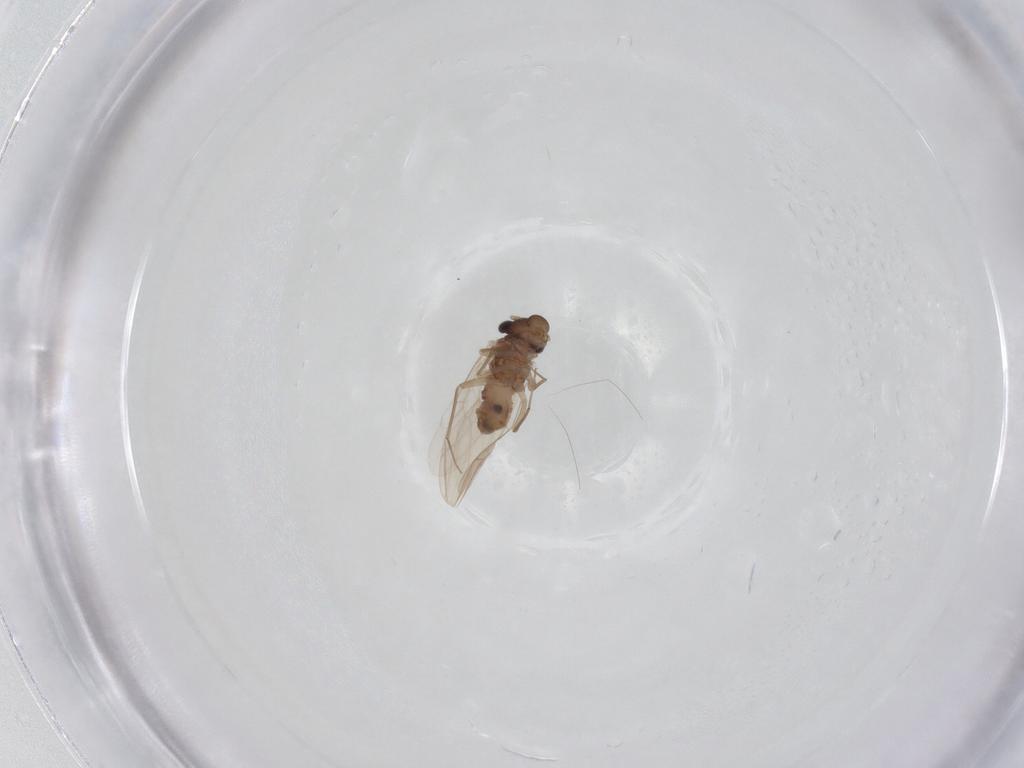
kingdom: Animalia
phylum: Arthropoda
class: Insecta
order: Psocodea
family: Lepidopsocidae
